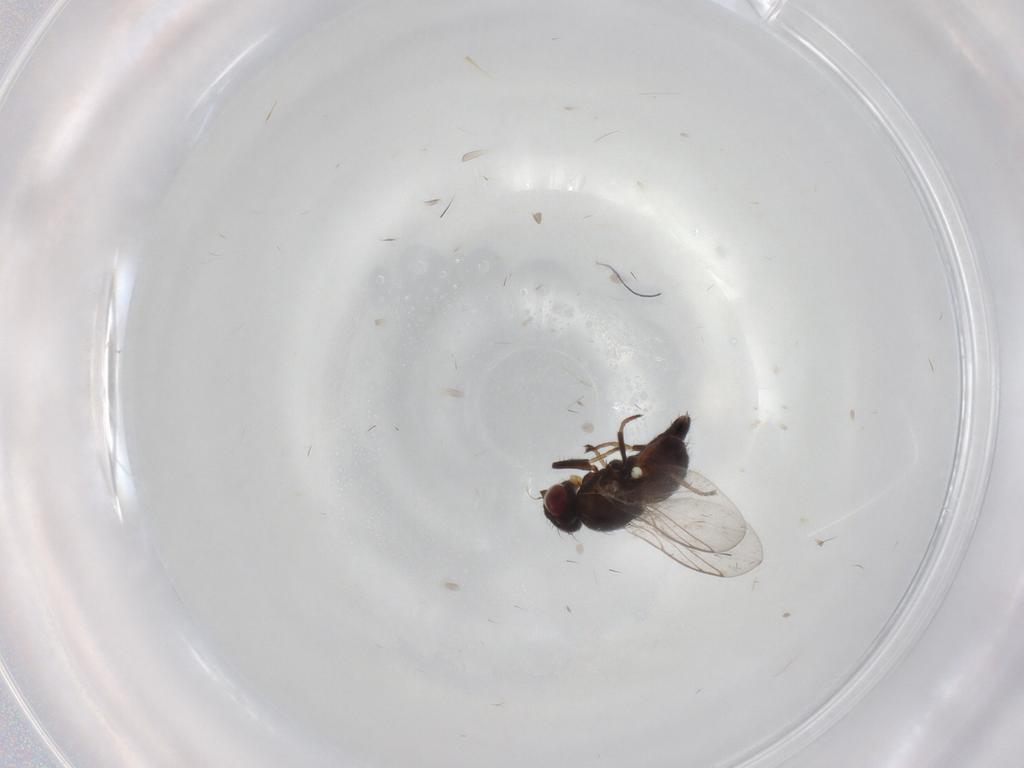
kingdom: Animalia
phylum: Arthropoda
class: Insecta
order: Diptera
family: Agromyzidae
